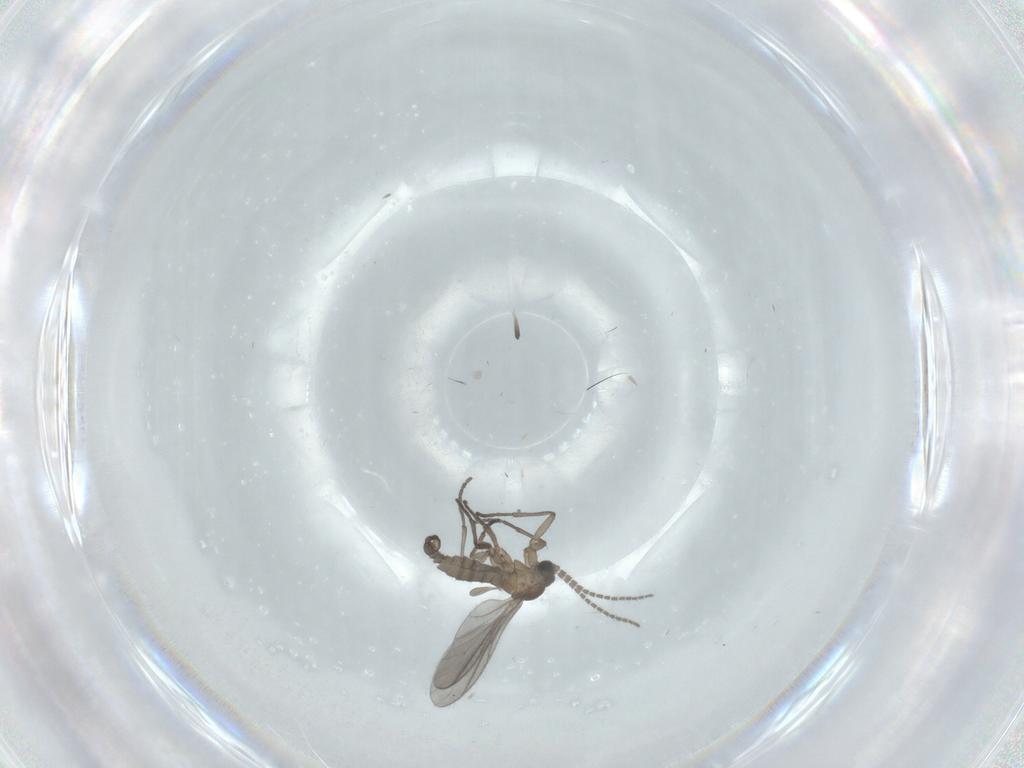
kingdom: Animalia
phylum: Arthropoda
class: Insecta
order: Diptera
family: Sciaridae
